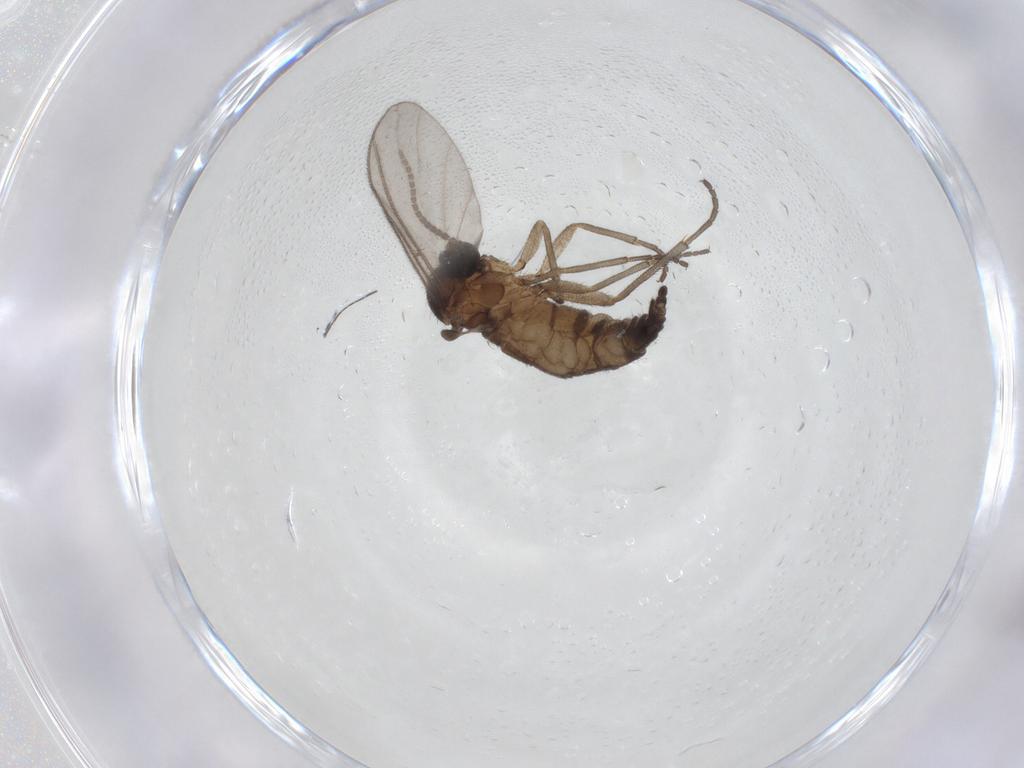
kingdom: Animalia
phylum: Arthropoda
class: Insecta
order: Diptera
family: Sciaridae
